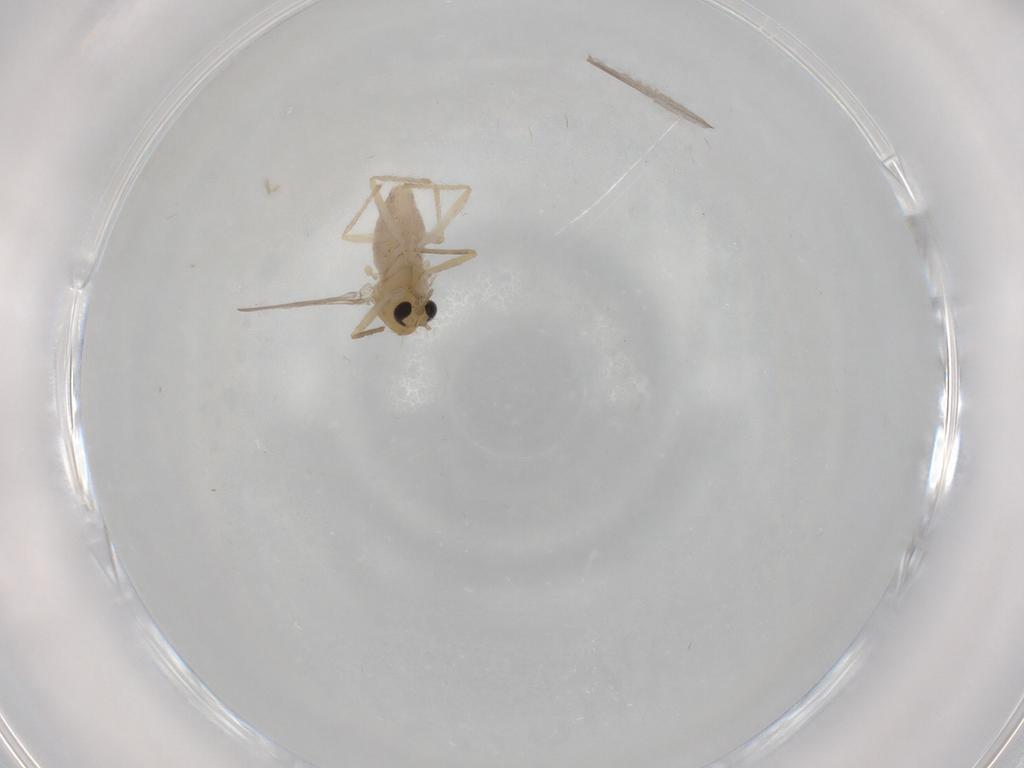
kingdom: Animalia
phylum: Arthropoda
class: Insecta
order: Diptera
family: Chironomidae
